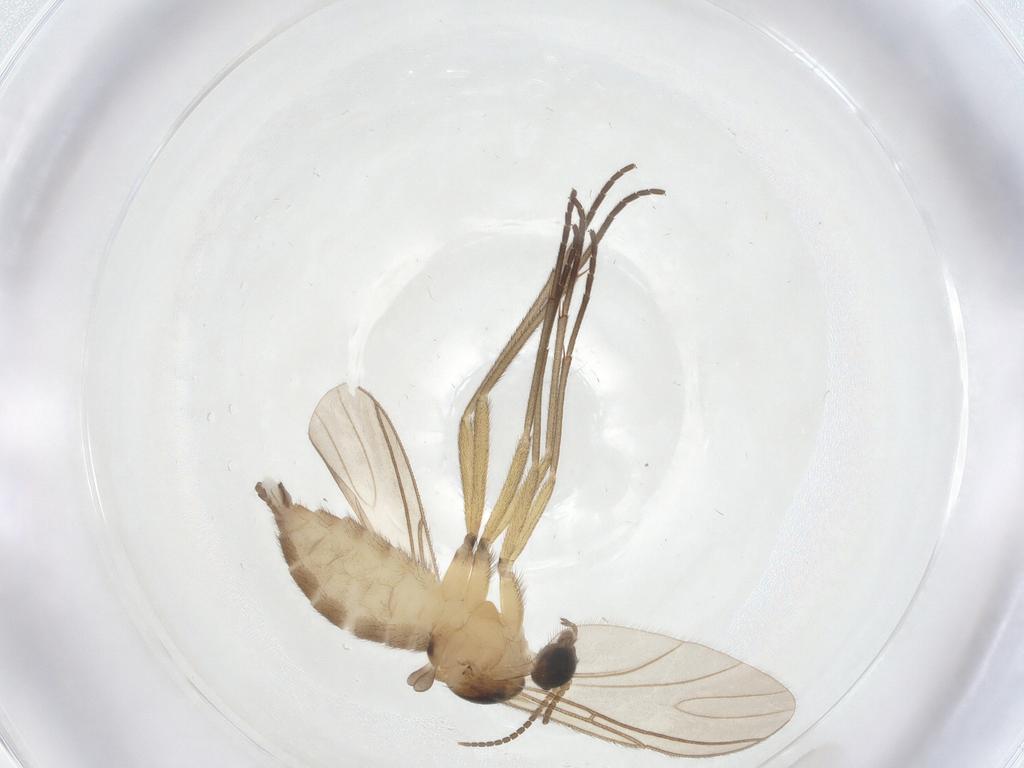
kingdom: Animalia
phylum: Arthropoda
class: Insecta
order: Diptera
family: Sciaridae
